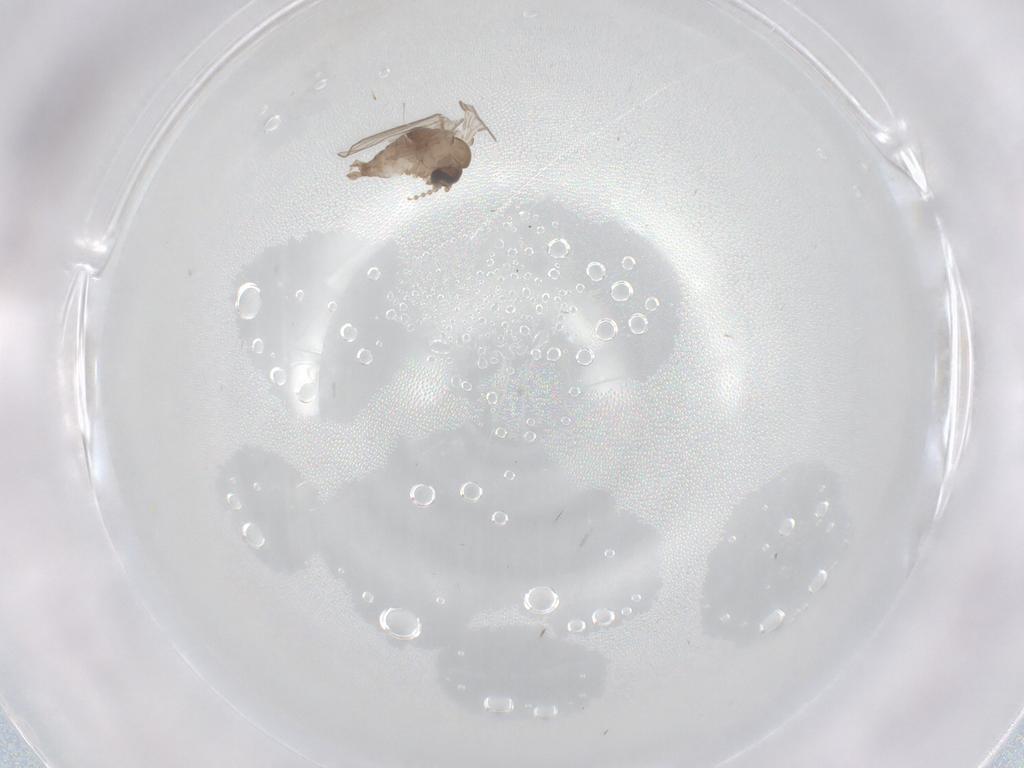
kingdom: Animalia
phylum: Arthropoda
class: Insecta
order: Diptera
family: Psychodidae
